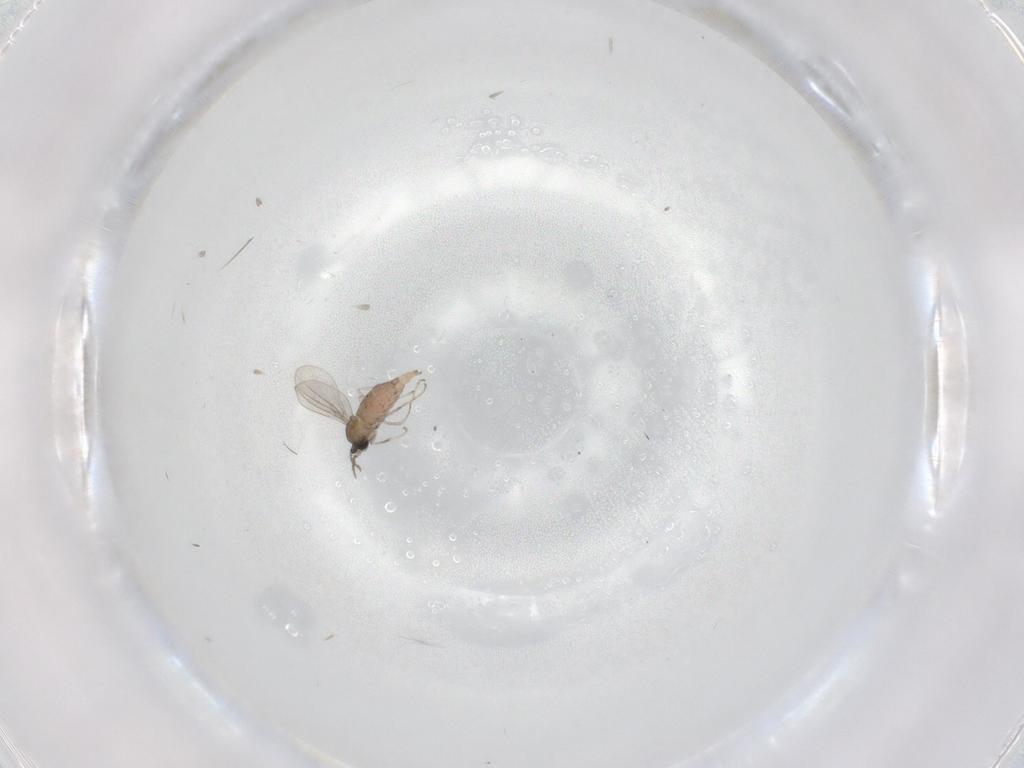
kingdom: Animalia
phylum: Arthropoda
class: Insecta
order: Diptera
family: Cecidomyiidae
